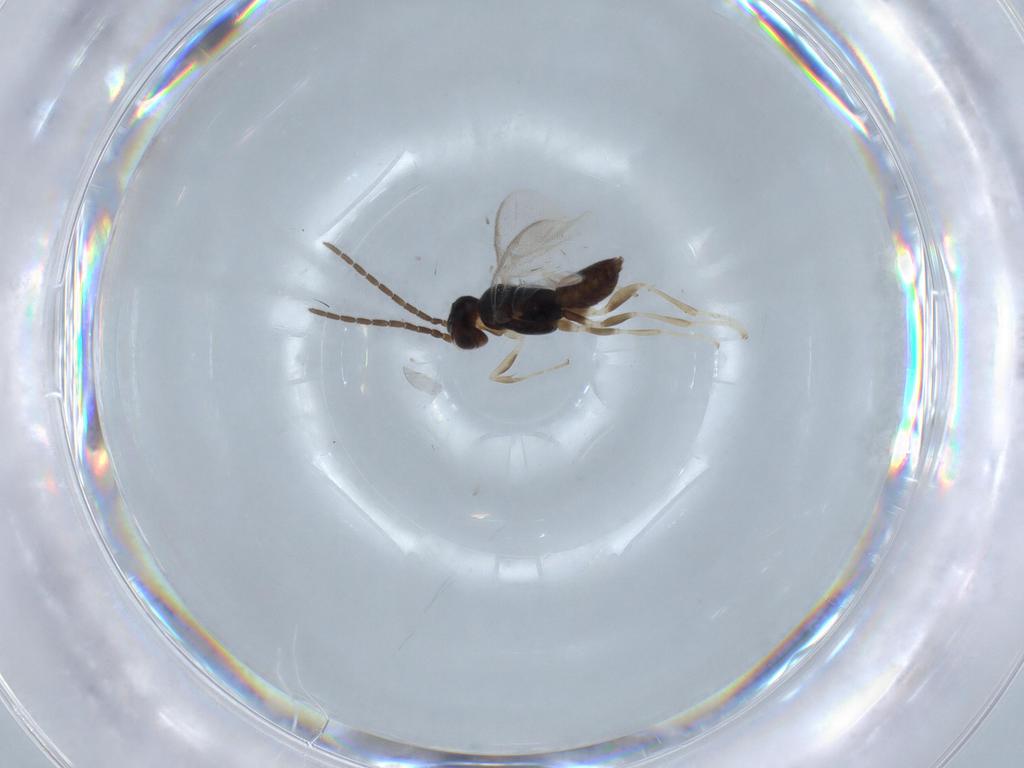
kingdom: Animalia
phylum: Arthropoda
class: Insecta
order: Hymenoptera
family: Dryinidae
